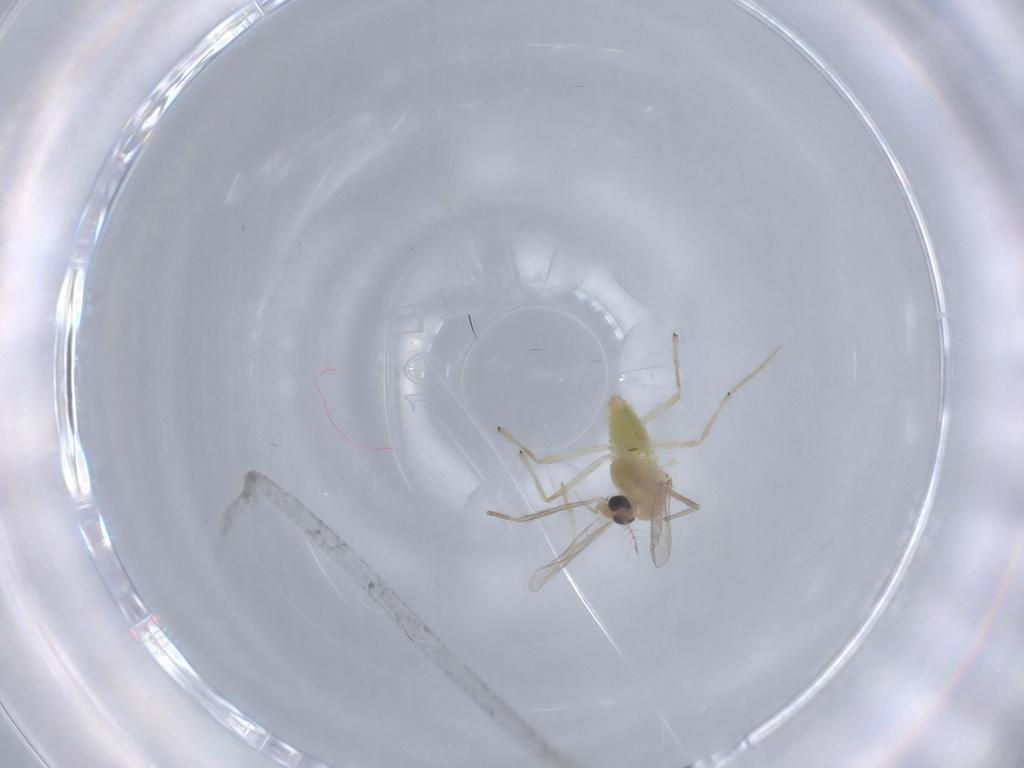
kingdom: Animalia
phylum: Arthropoda
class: Insecta
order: Diptera
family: Chironomidae
